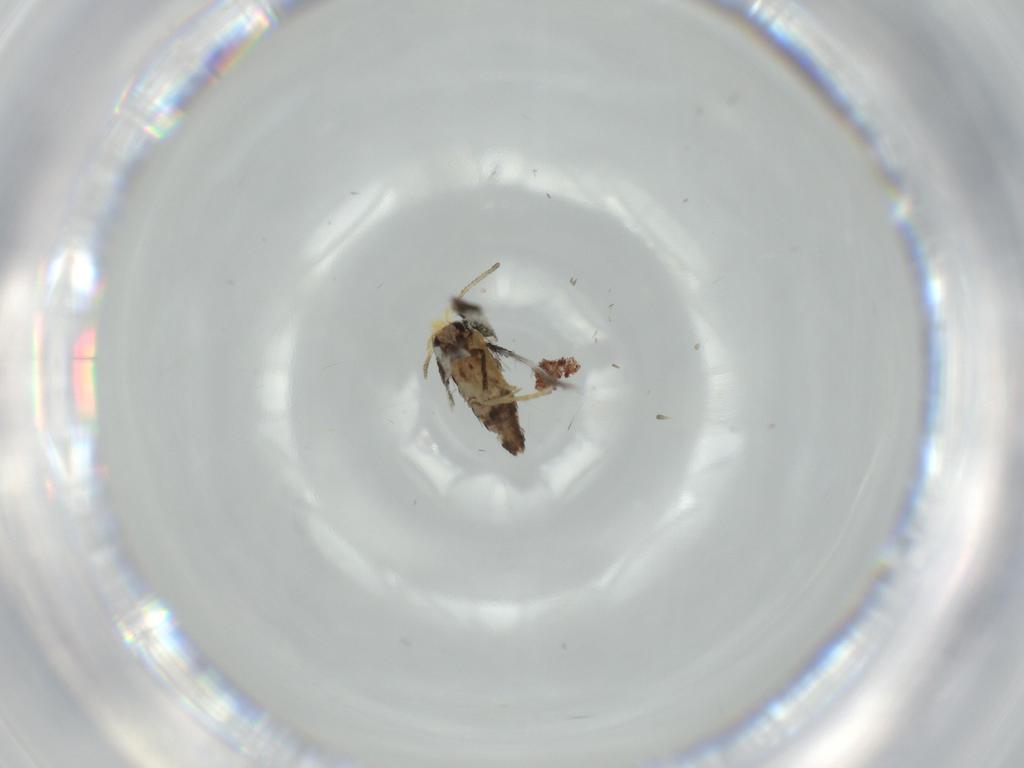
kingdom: Animalia
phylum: Arthropoda
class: Insecta
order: Lepidoptera
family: Nepticulidae
